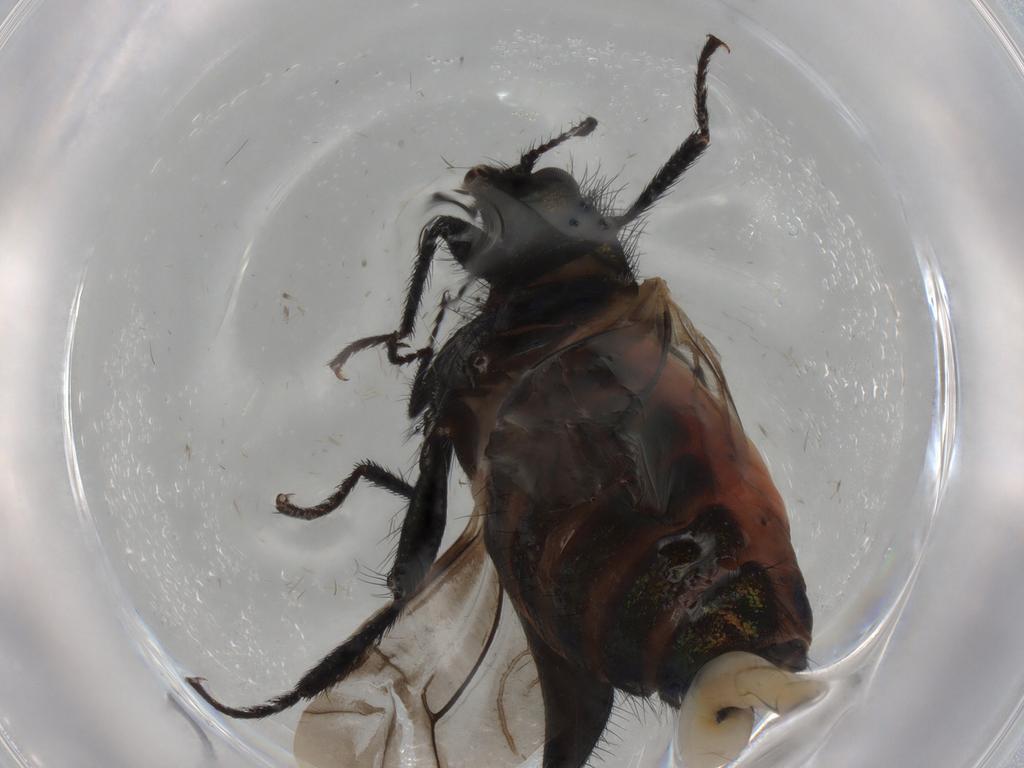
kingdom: Animalia
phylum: Arthropoda
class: Insecta
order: Coleoptera
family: Melyridae
